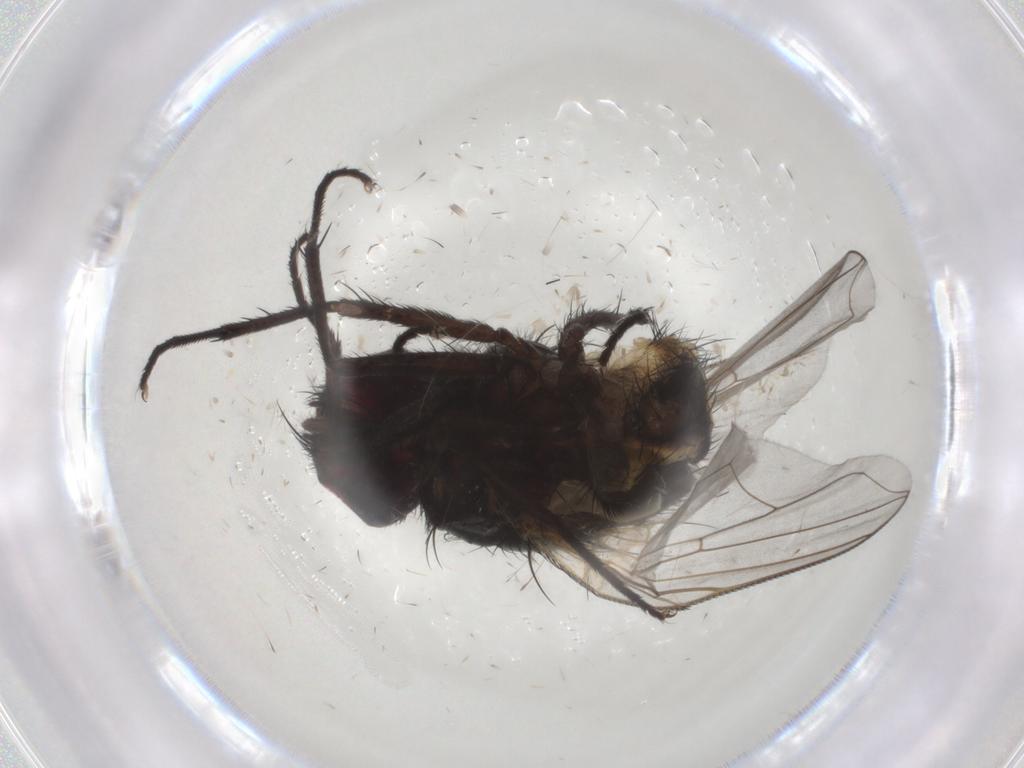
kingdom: Animalia
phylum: Arthropoda
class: Insecta
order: Diptera
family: Muscidae
